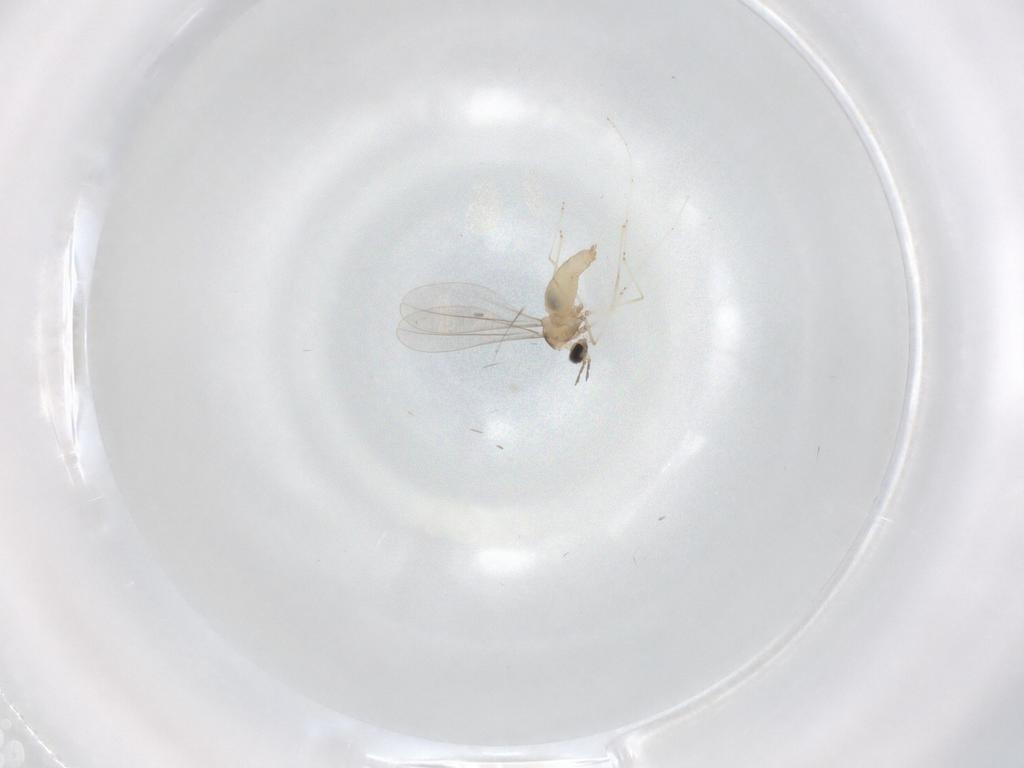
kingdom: Animalia
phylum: Arthropoda
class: Insecta
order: Diptera
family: Cecidomyiidae
